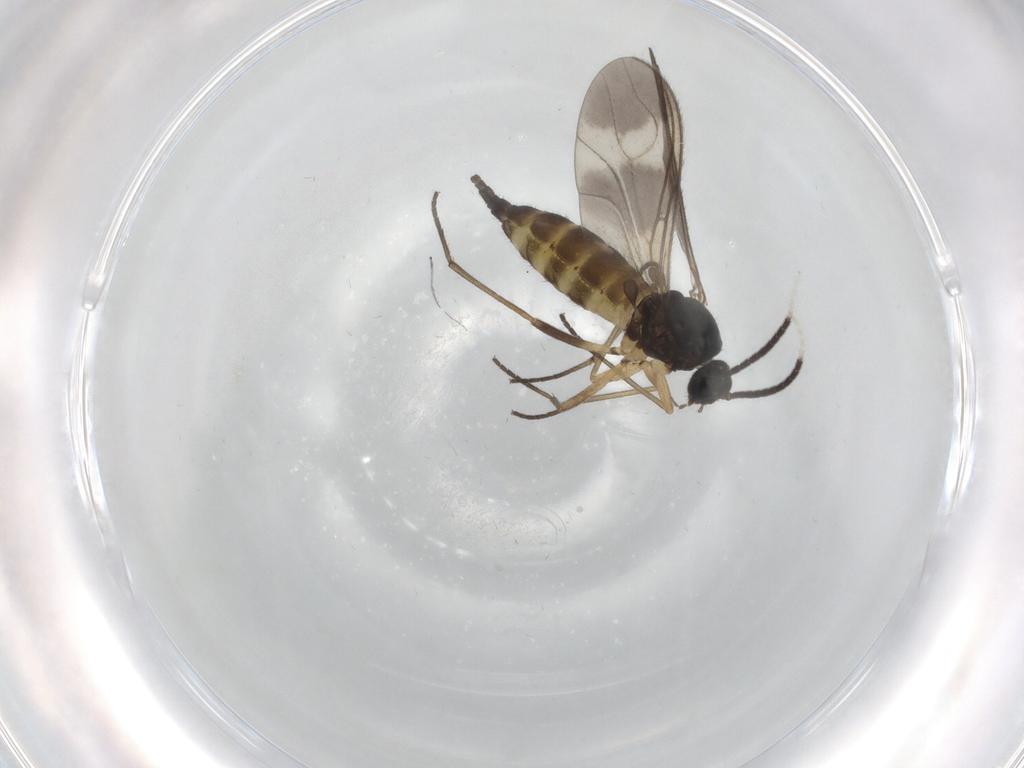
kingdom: Animalia
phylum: Arthropoda
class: Insecta
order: Diptera
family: Sciaridae
